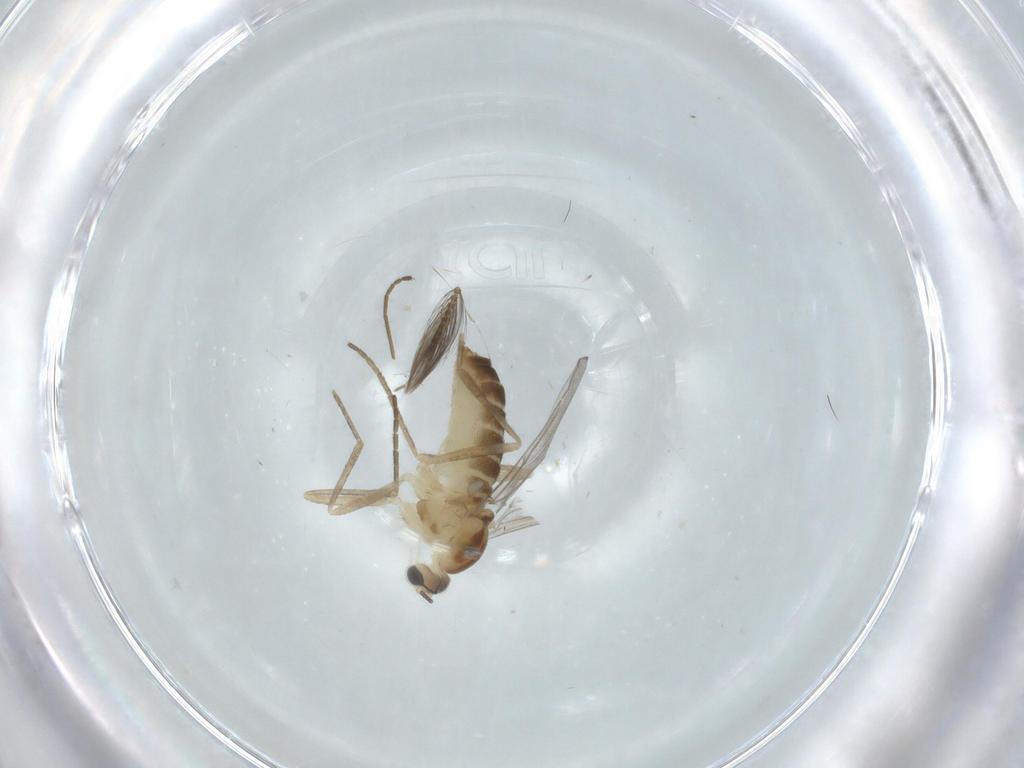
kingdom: Animalia
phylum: Arthropoda
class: Insecta
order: Diptera
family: Cecidomyiidae
